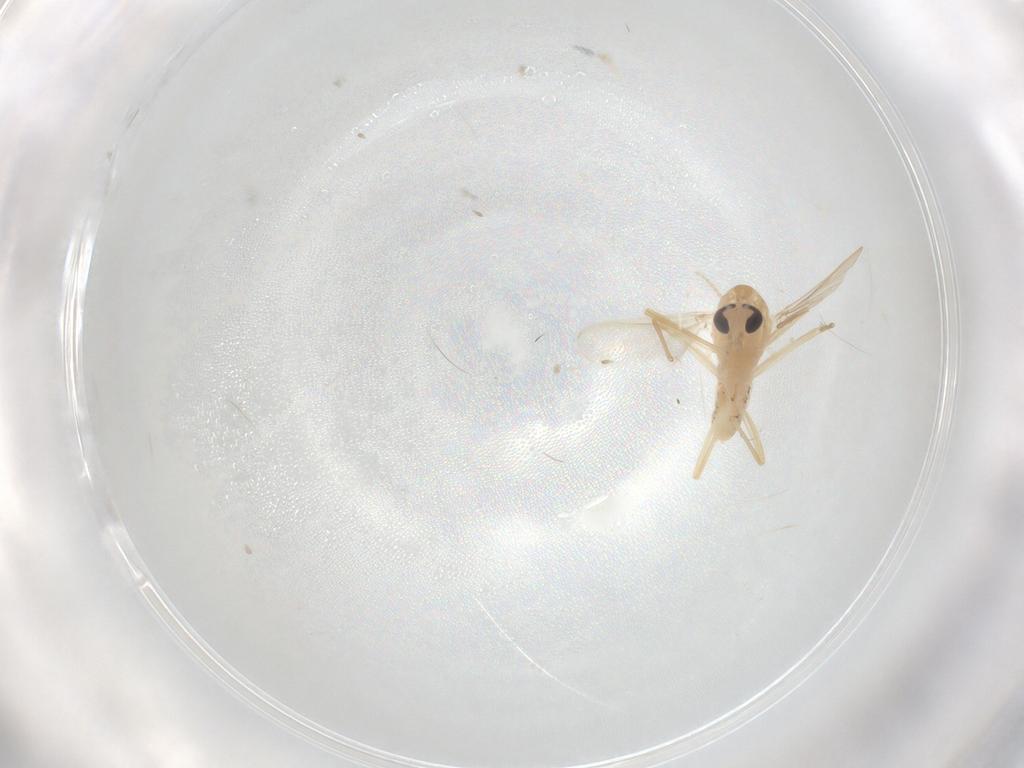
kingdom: Animalia
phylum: Arthropoda
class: Insecta
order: Diptera
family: Chironomidae
